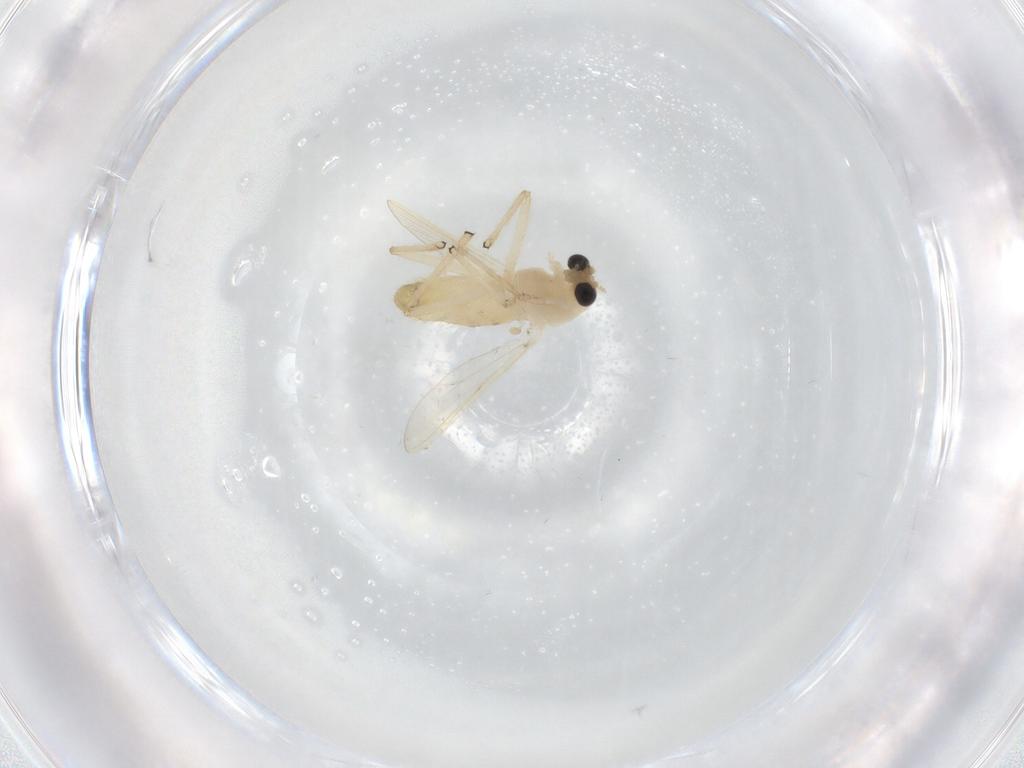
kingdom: Animalia
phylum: Arthropoda
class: Insecta
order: Diptera
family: Chironomidae
